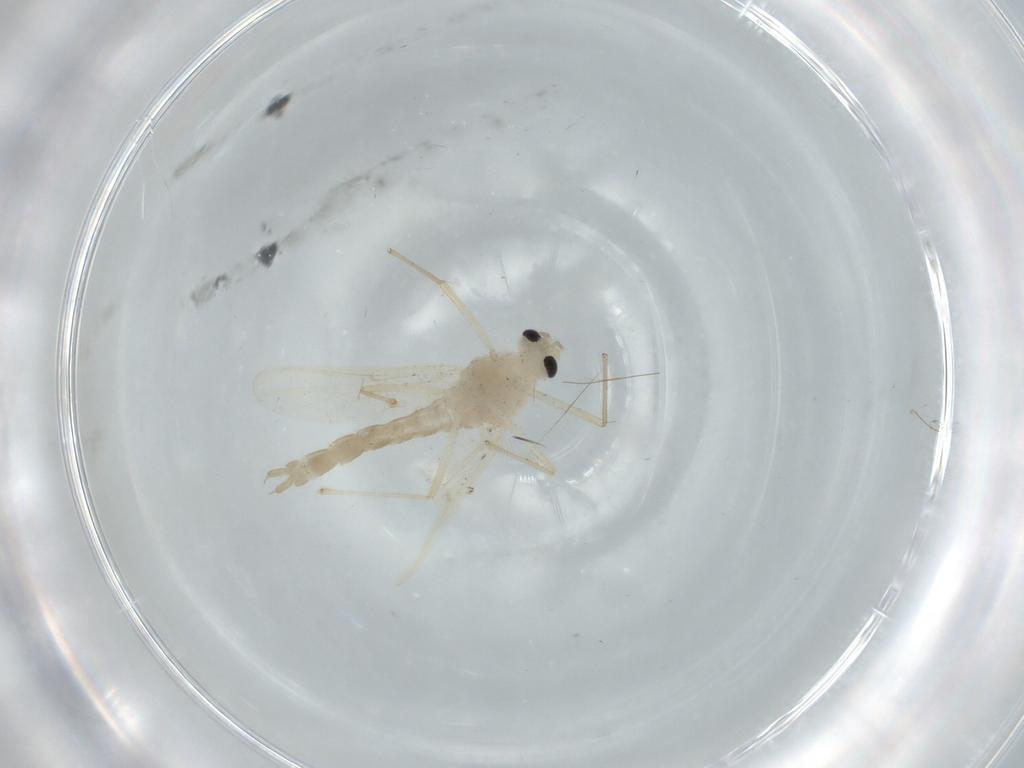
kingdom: Animalia
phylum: Arthropoda
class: Insecta
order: Diptera
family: Chironomidae
